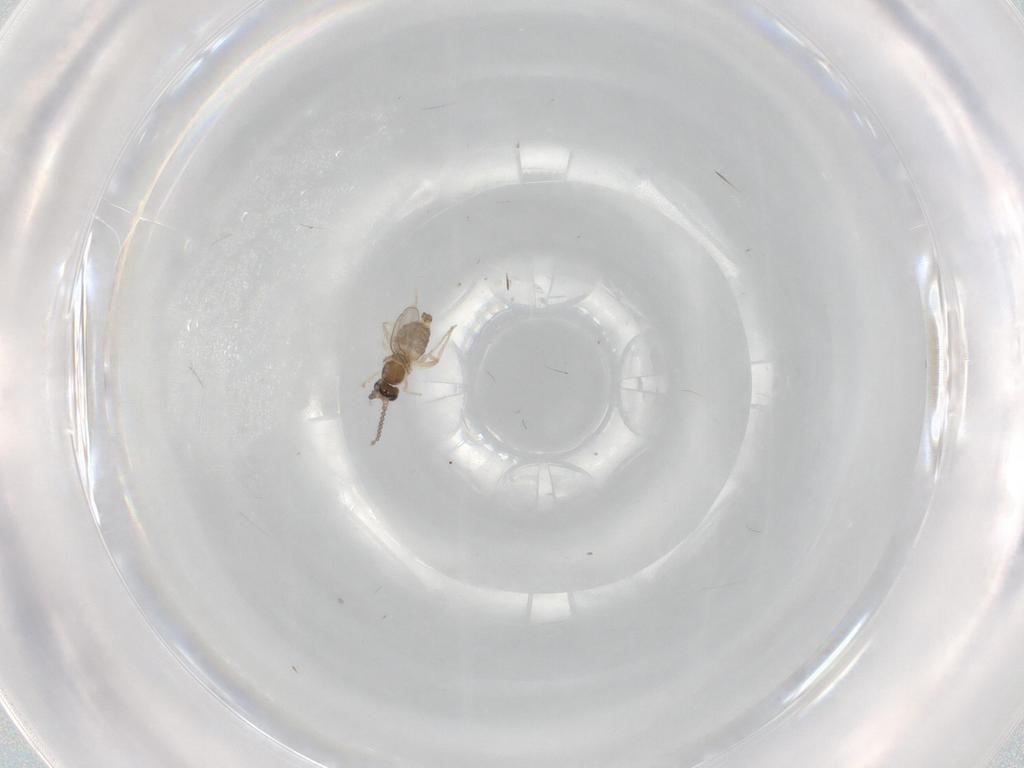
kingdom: Animalia
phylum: Arthropoda
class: Insecta
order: Diptera
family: Cecidomyiidae
